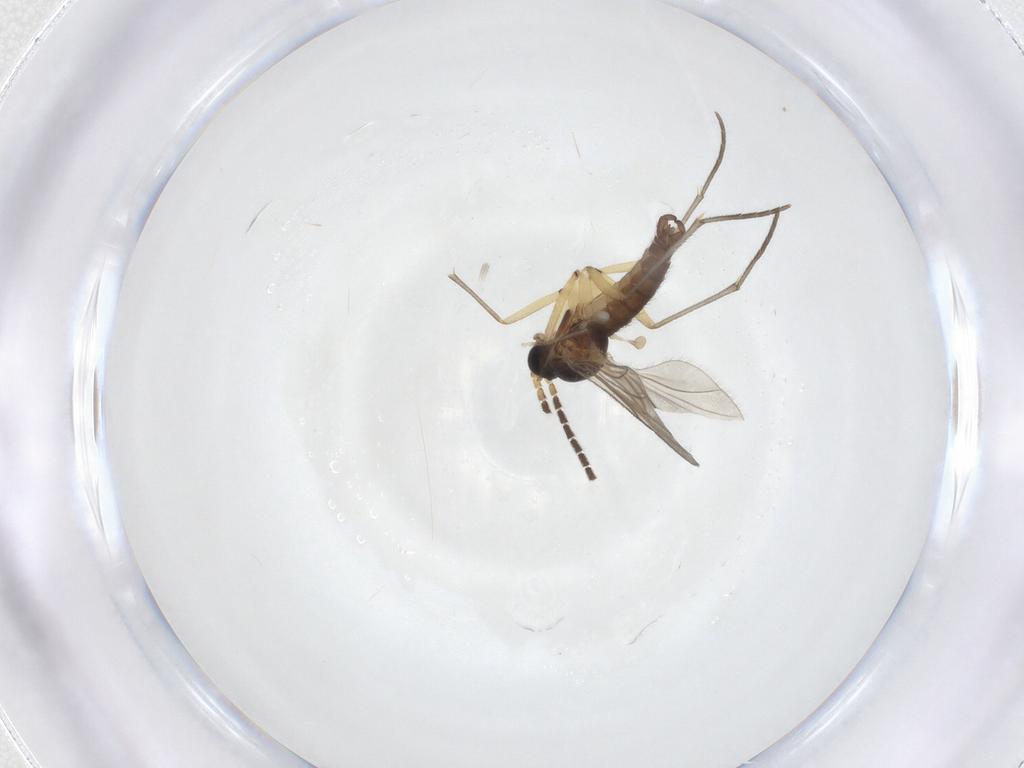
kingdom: Animalia
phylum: Arthropoda
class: Insecta
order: Diptera
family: Sciaridae
